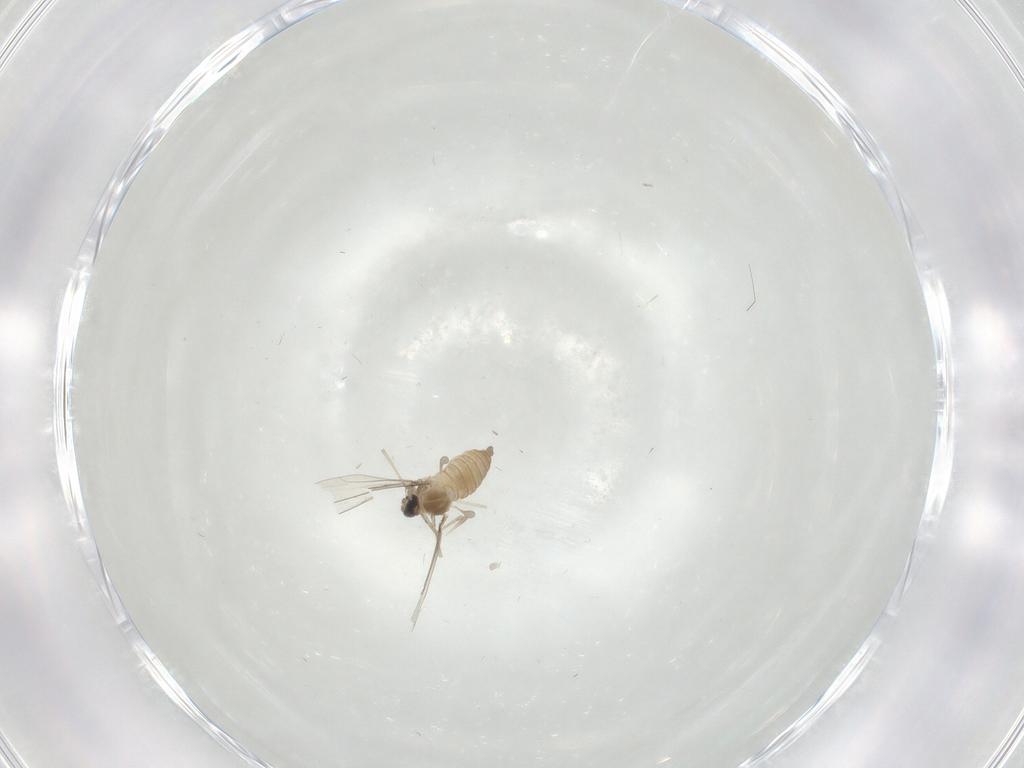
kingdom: Animalia
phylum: Arthropoda
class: Insecta
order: Diptera
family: Cecidomyiidae
